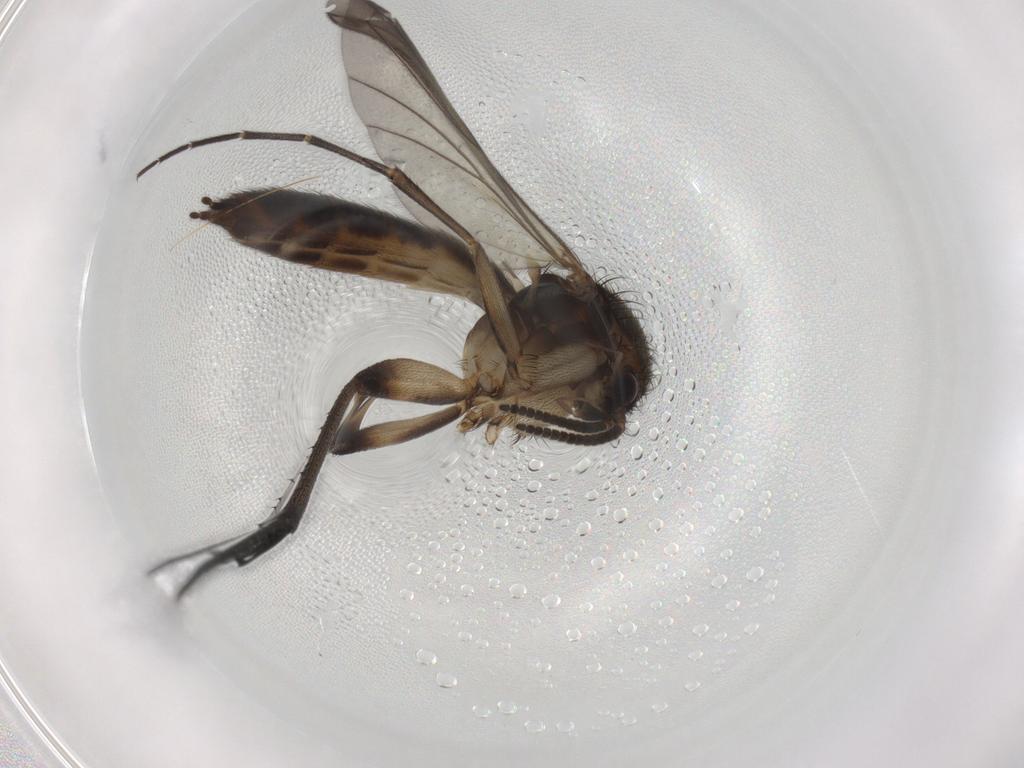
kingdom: Animalia
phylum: Arthropoda
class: Insecta
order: Diptera
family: Mycetophilidae
